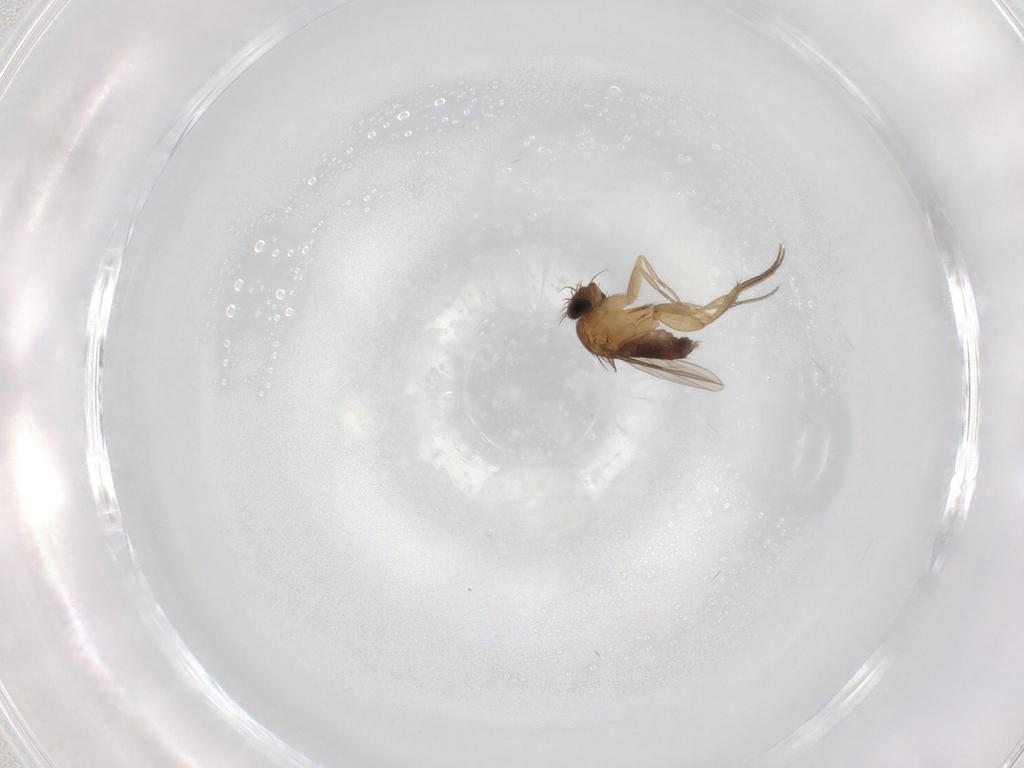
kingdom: Animalia
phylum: Arthropoda
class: Insecta
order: Diptera
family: Phoridae
